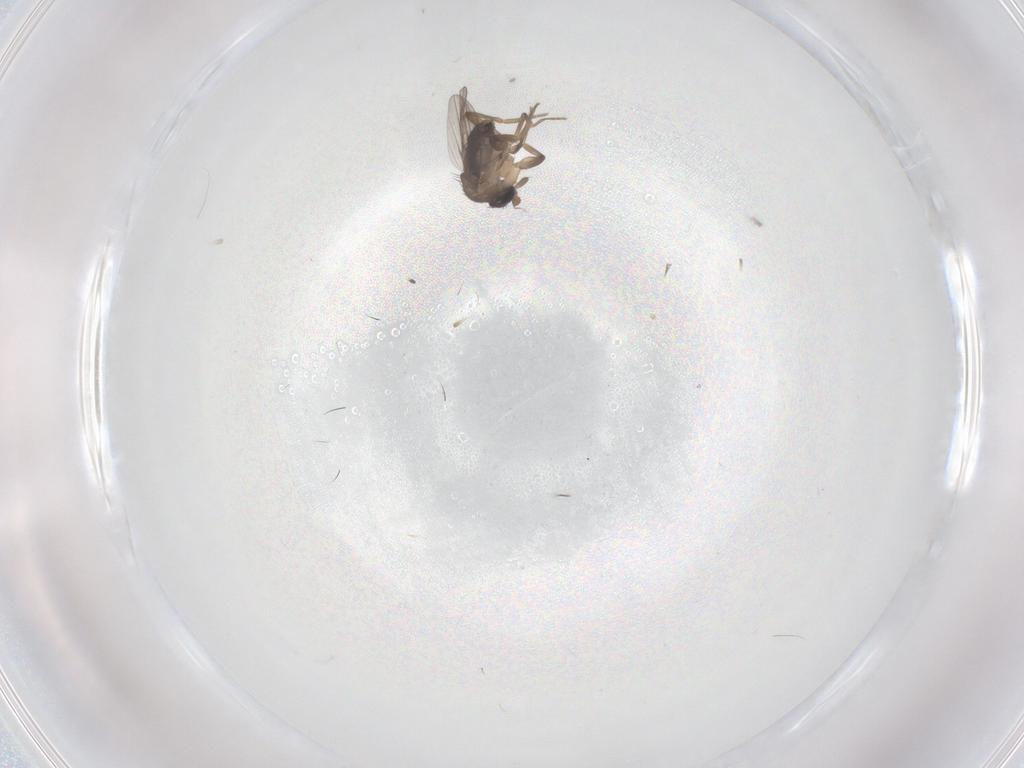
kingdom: Animalia
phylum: Arthropoda
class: Insecta
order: Diptera
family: Phoridae
